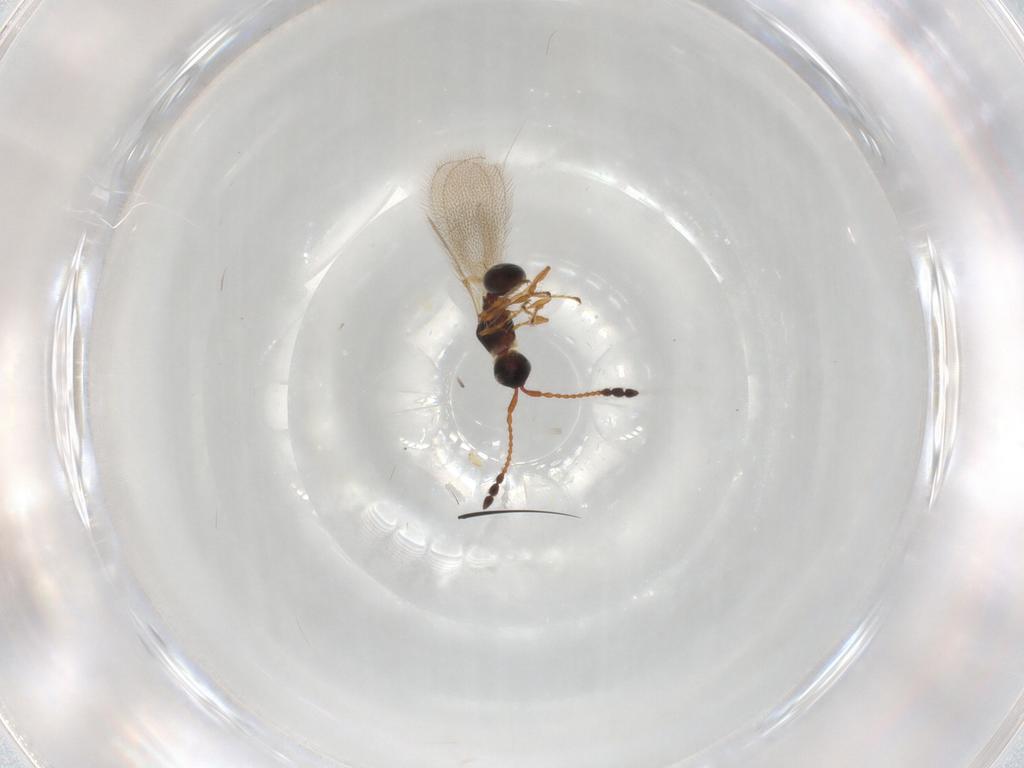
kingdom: Animalia
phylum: Arthropoda
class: Insecta
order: Hymenoptera
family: Diapriidae
